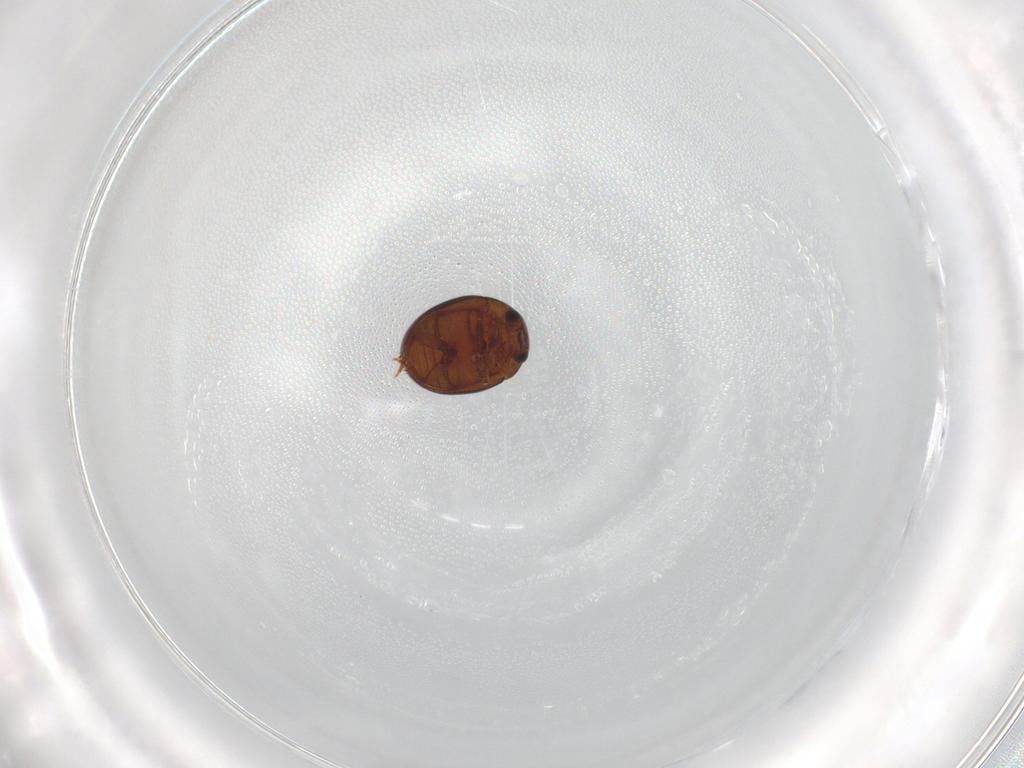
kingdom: Animalia
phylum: Arthropoda
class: Insecta
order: Coleoptera
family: Leiodidae
